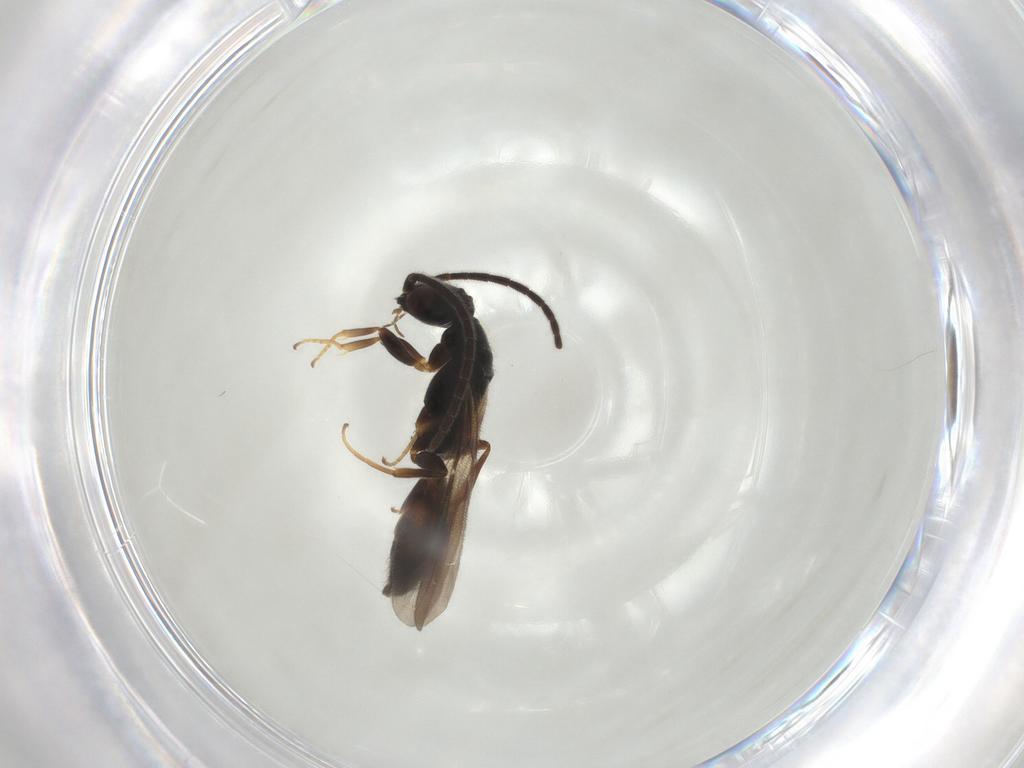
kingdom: Animalia
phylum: Arthropoda
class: Insecta
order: Hymenoptera
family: Bethylidae
